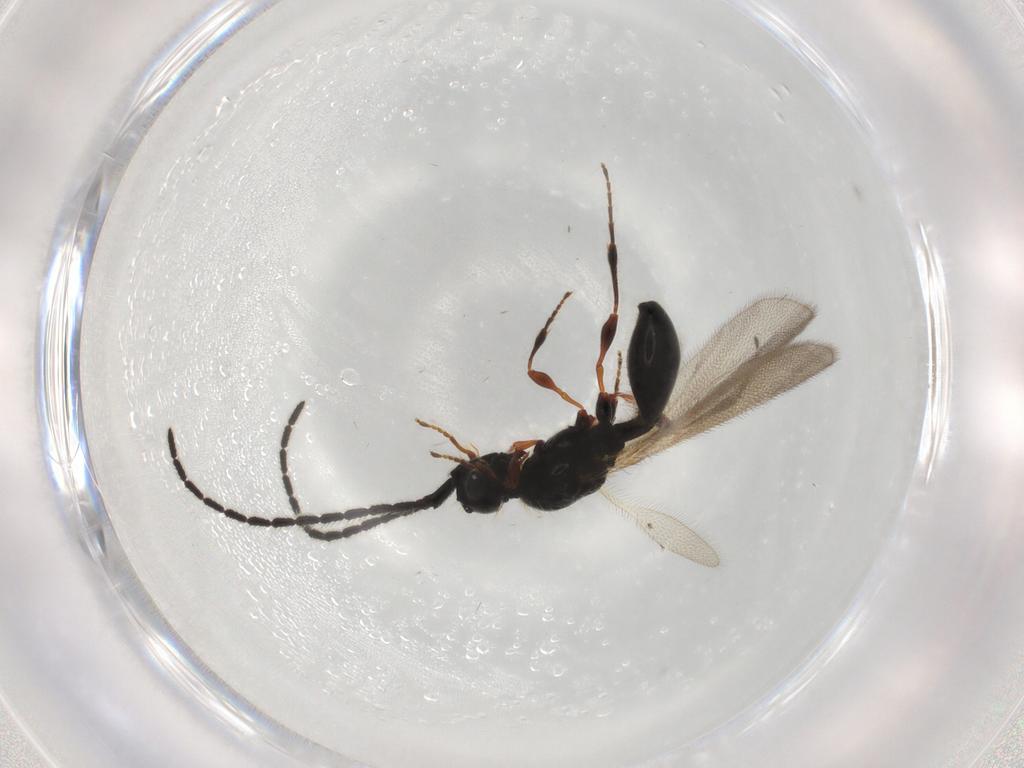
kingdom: Animalia
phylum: Arthropoda
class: Insecta
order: Hymenoptera
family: Diapriidae
